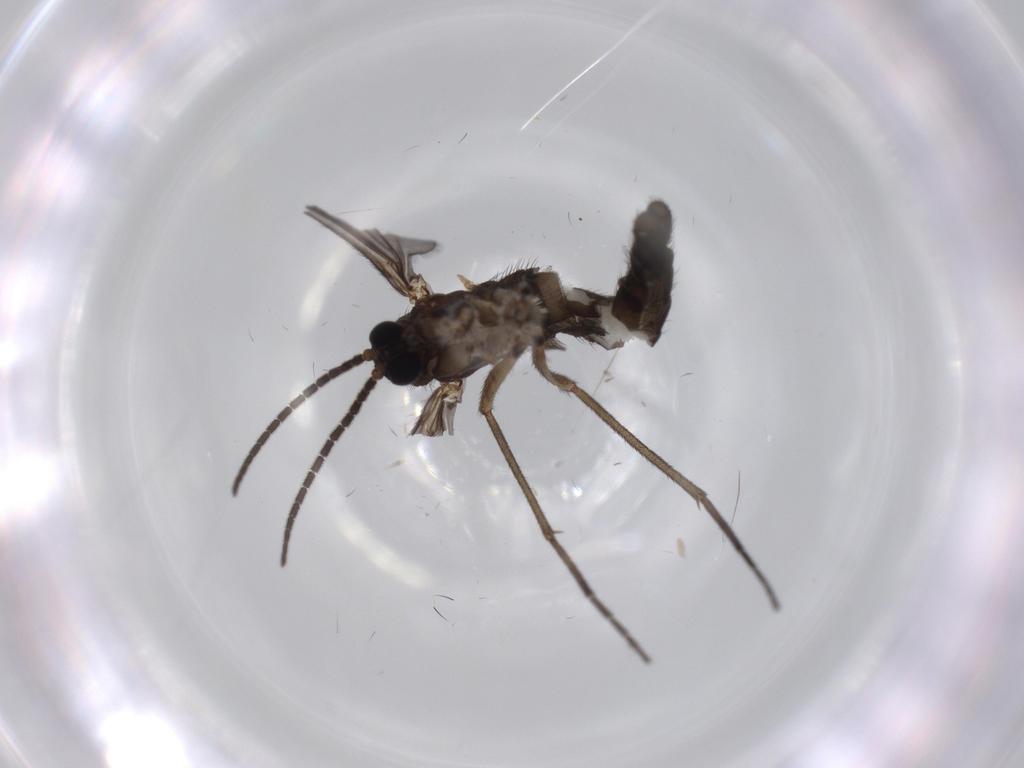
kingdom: Animalia
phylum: Arthropoda
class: Insecta
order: Diptera
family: Sciaridae
